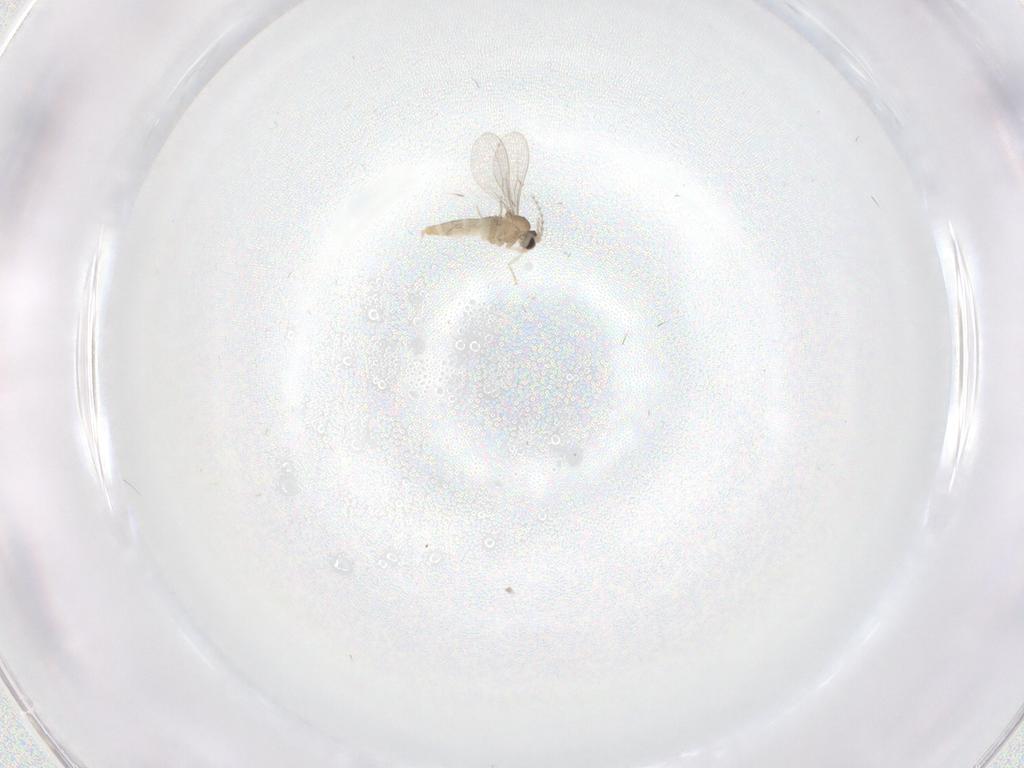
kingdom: Animalia
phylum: Arthropoda
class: Insecta
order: Diptera
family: Cecidomyiidae
